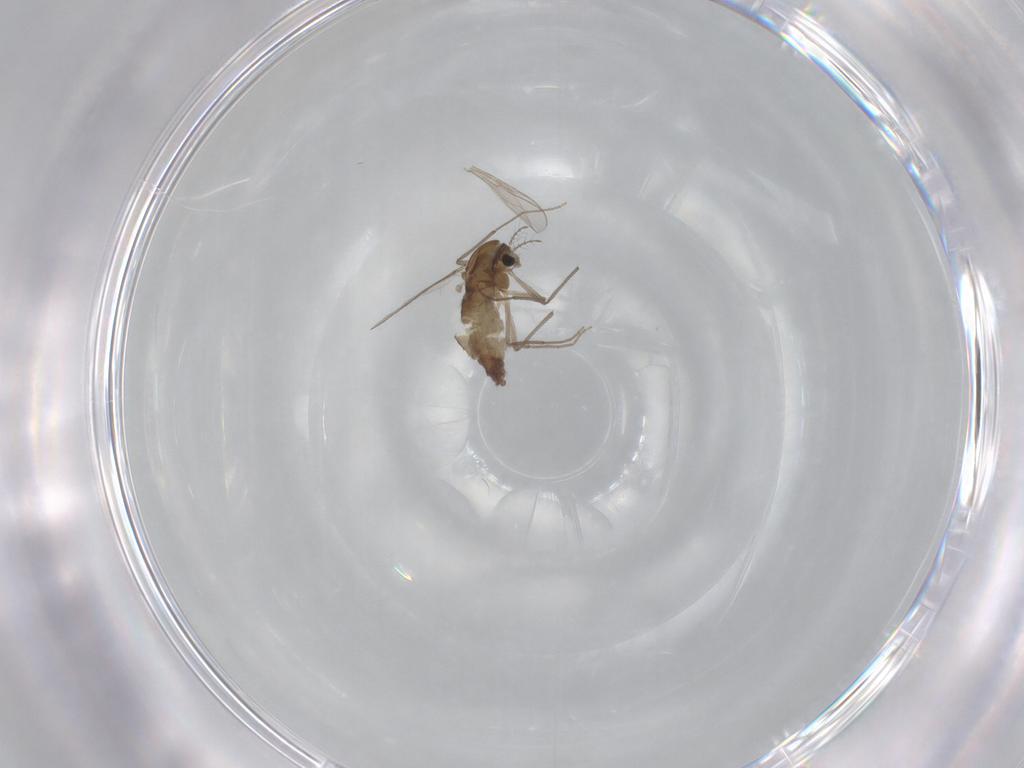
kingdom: Animalia
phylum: Arthropoda
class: Insecta
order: Diptera
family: Chironomidae
